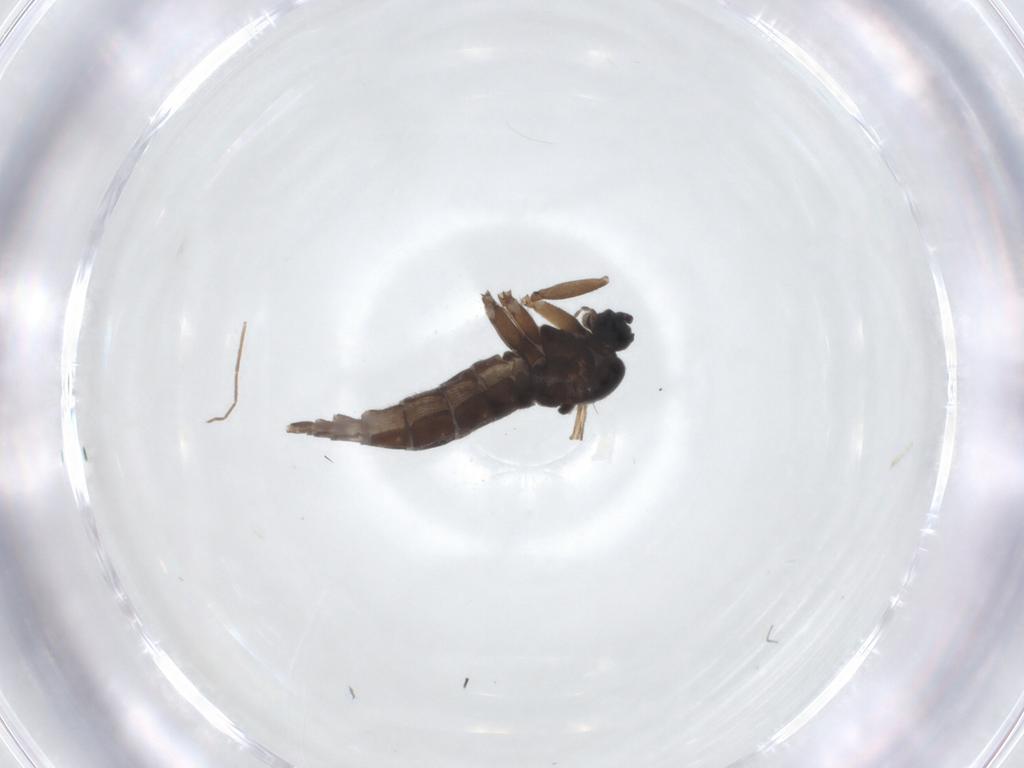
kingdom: Animalia
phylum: Arthropoda
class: Insecta
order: Diptera
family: Sciaridae
